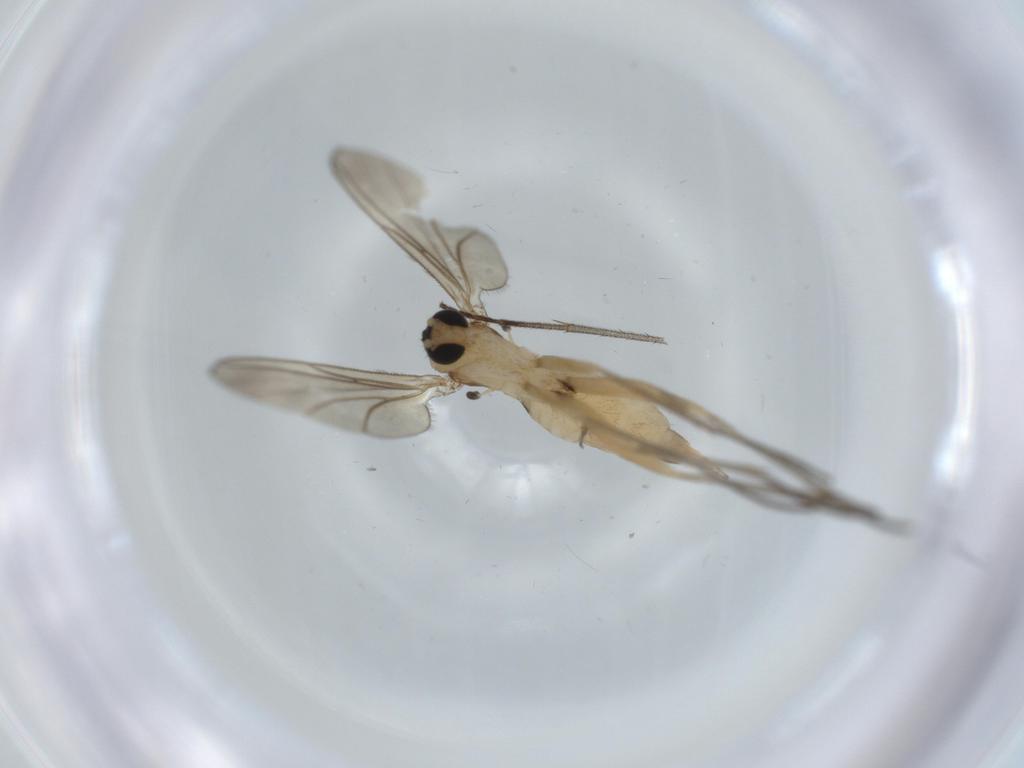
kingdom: Animalia
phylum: Arthropoda
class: Insecta
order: Diptera
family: Sciaridae
